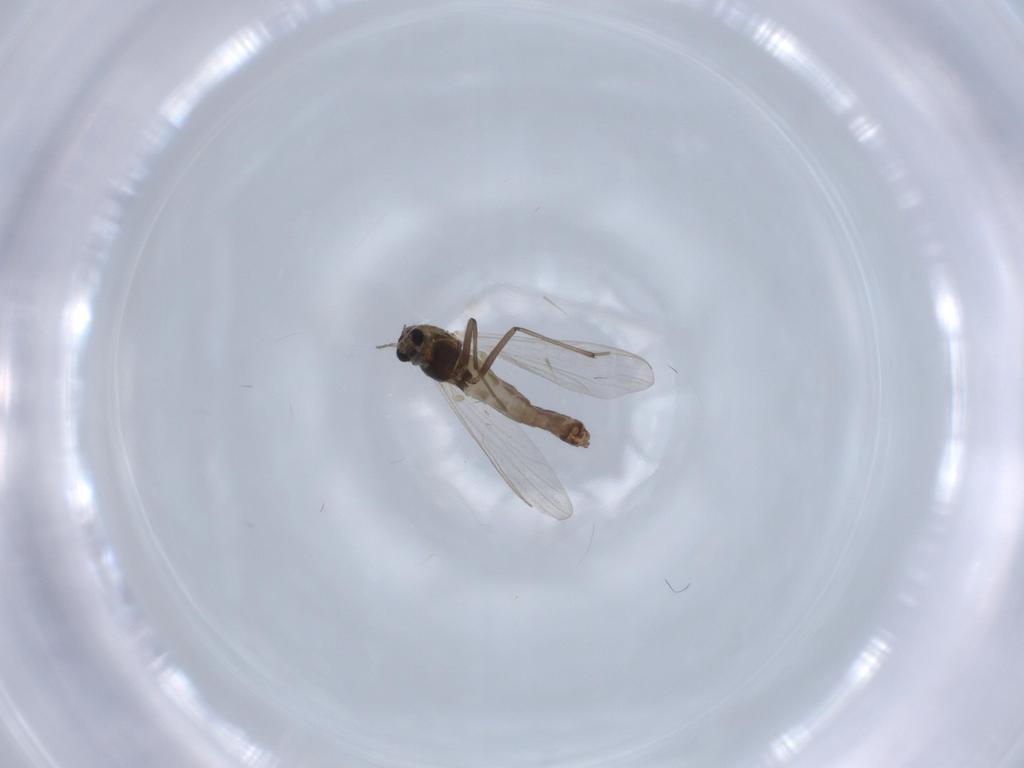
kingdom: Animalia
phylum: Arthropoda
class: Insecta
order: Diptera
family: Chironomidae
